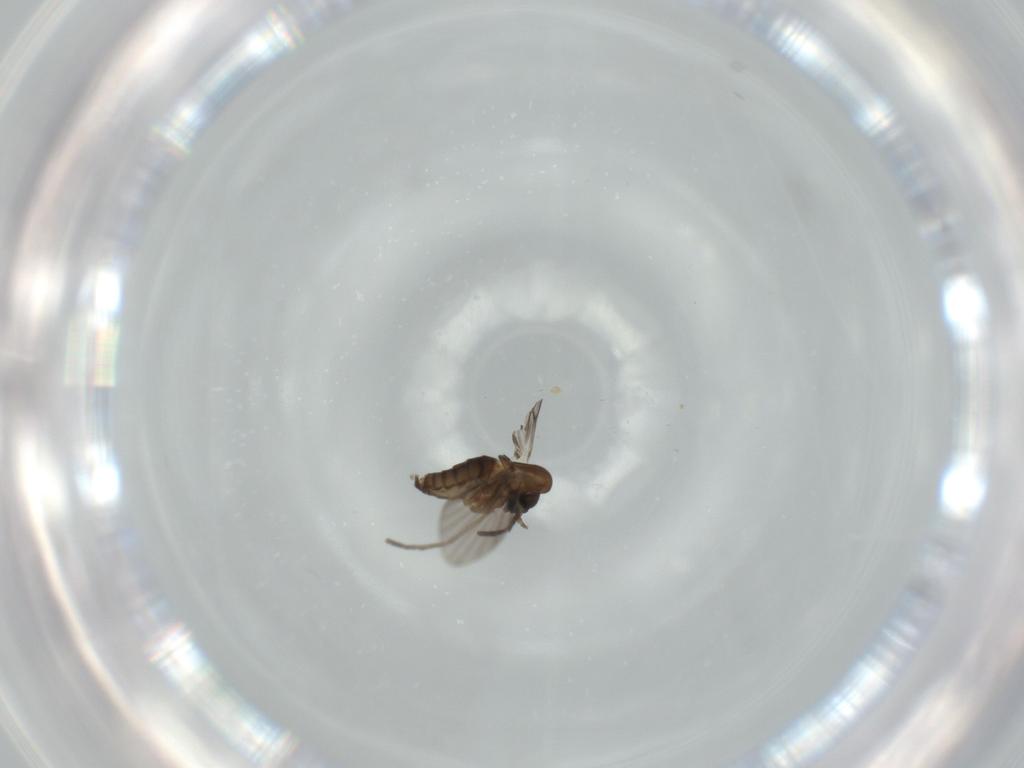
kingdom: Animalia
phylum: Arthropoda
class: Insecta
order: Diptera
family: Psychodidae
